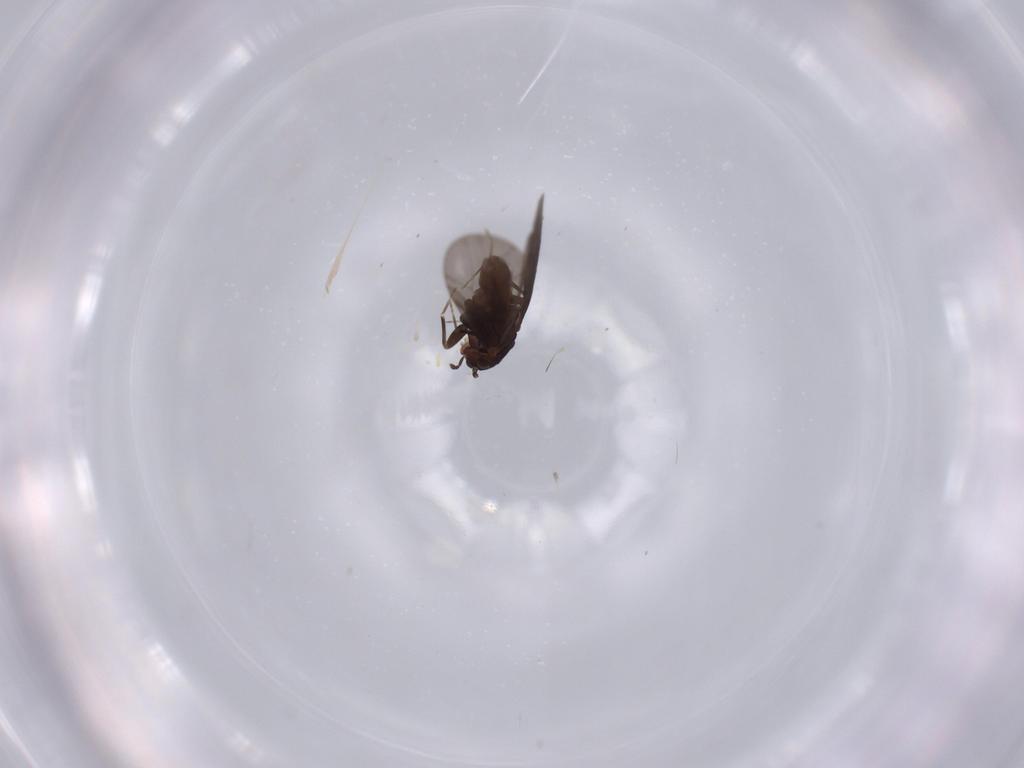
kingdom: Animalia
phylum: Arthropoda
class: Insecta
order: Psocodea
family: Lepidopsocidae
